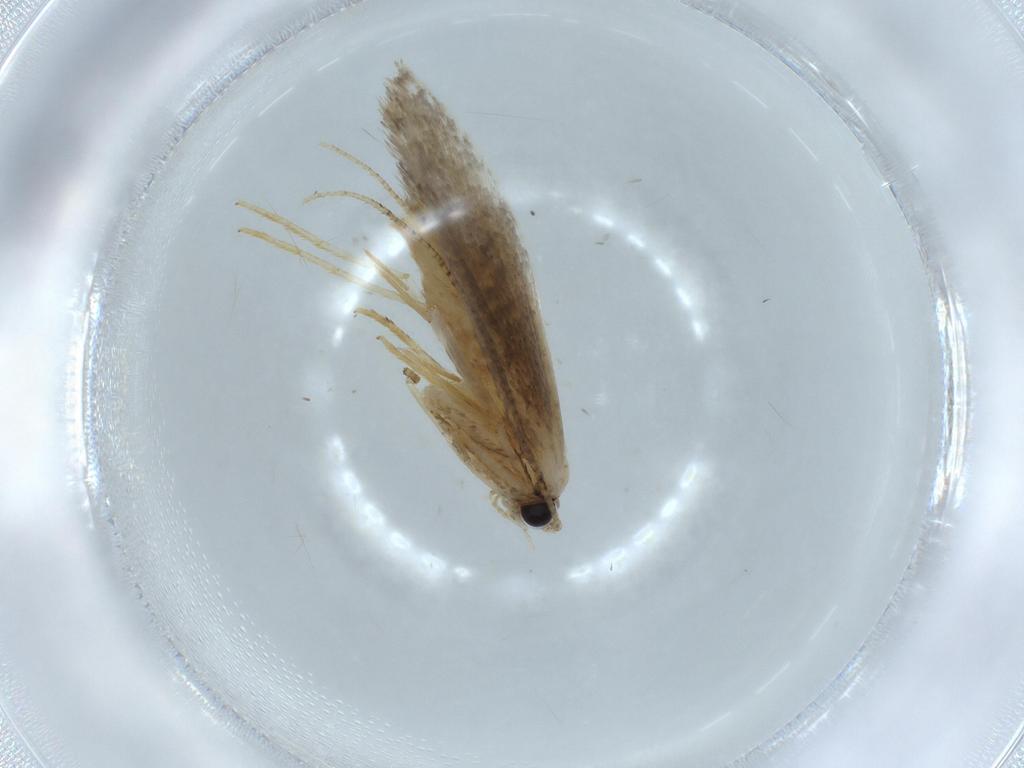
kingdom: Animalia
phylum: Arthropoda
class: Insecta
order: Lepidoptera
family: Tineidae
